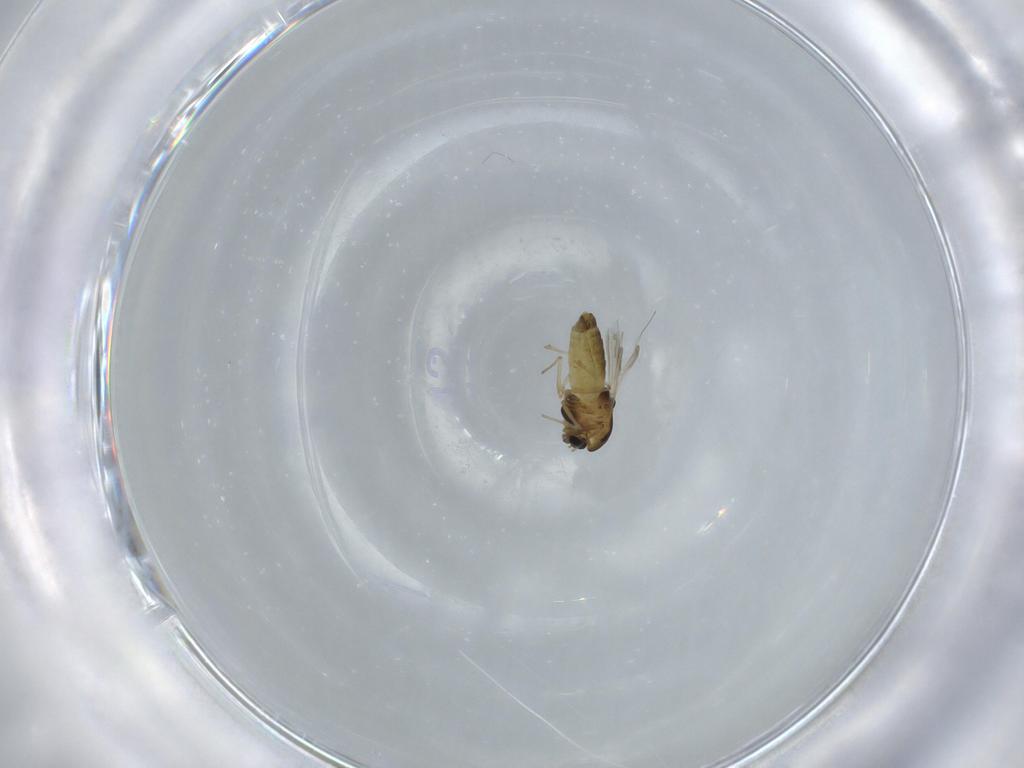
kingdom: Animalia
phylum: Arthropoda
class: Insecta
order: Diptera
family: Chironomidae
